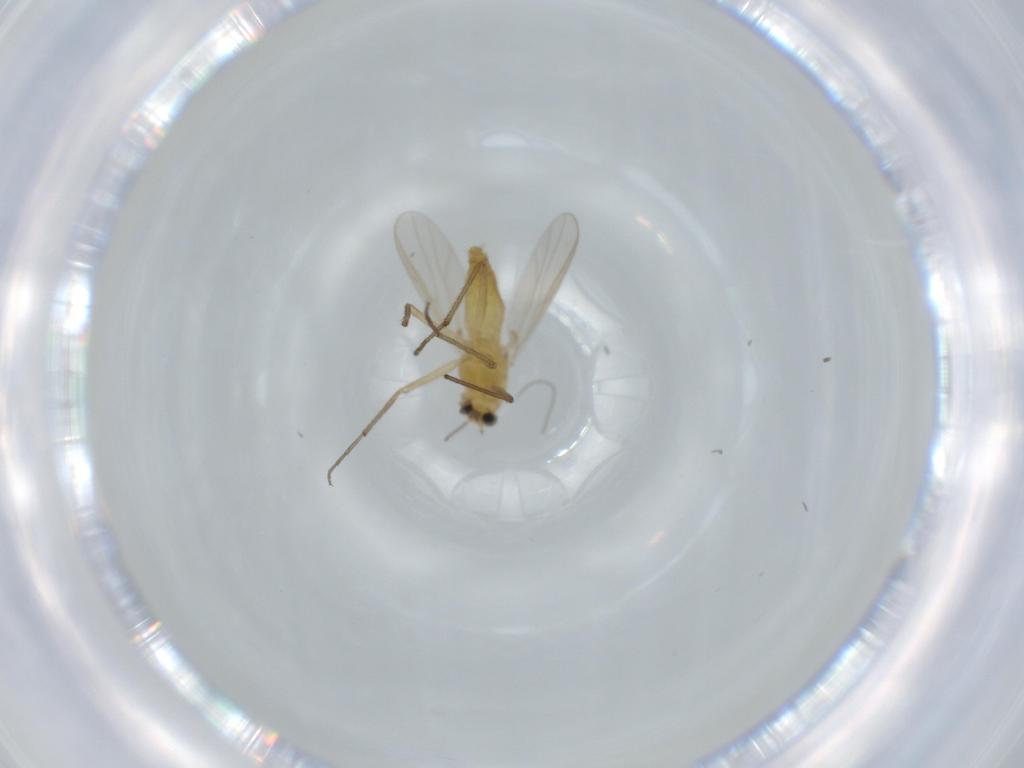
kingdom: Animalia
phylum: Arthropoda
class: Insecta
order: Diptera
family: Chironomidae
